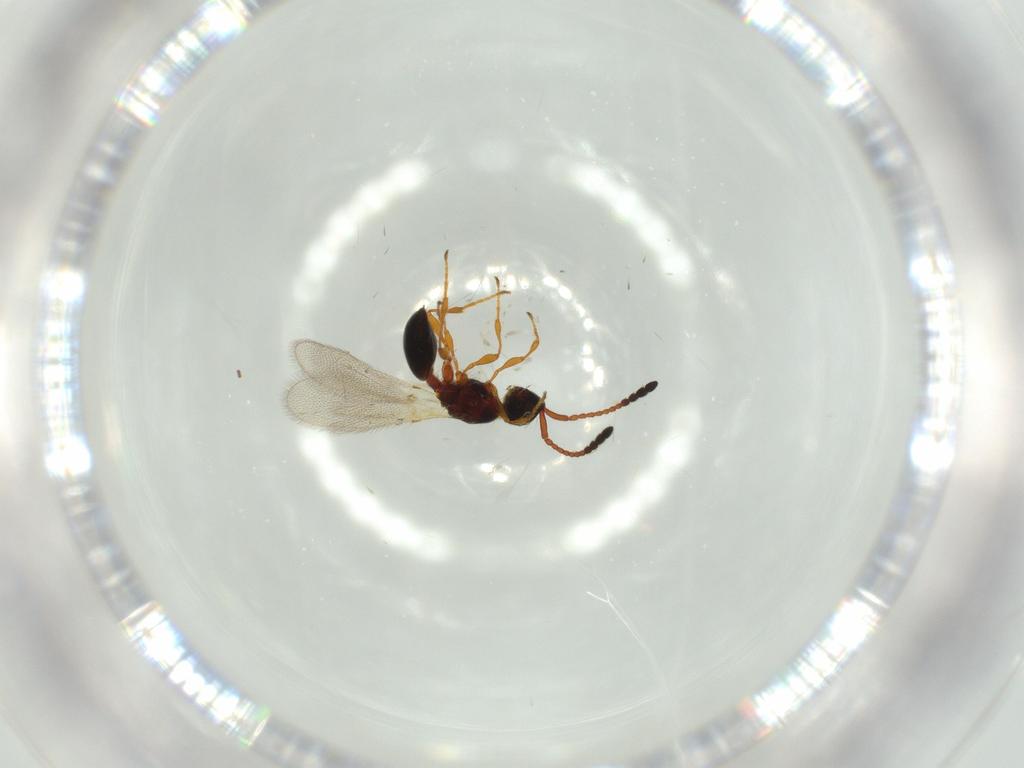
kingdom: Animalia
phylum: Arthropoda
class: Insecta
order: Hymenoptera
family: Diapriidae
